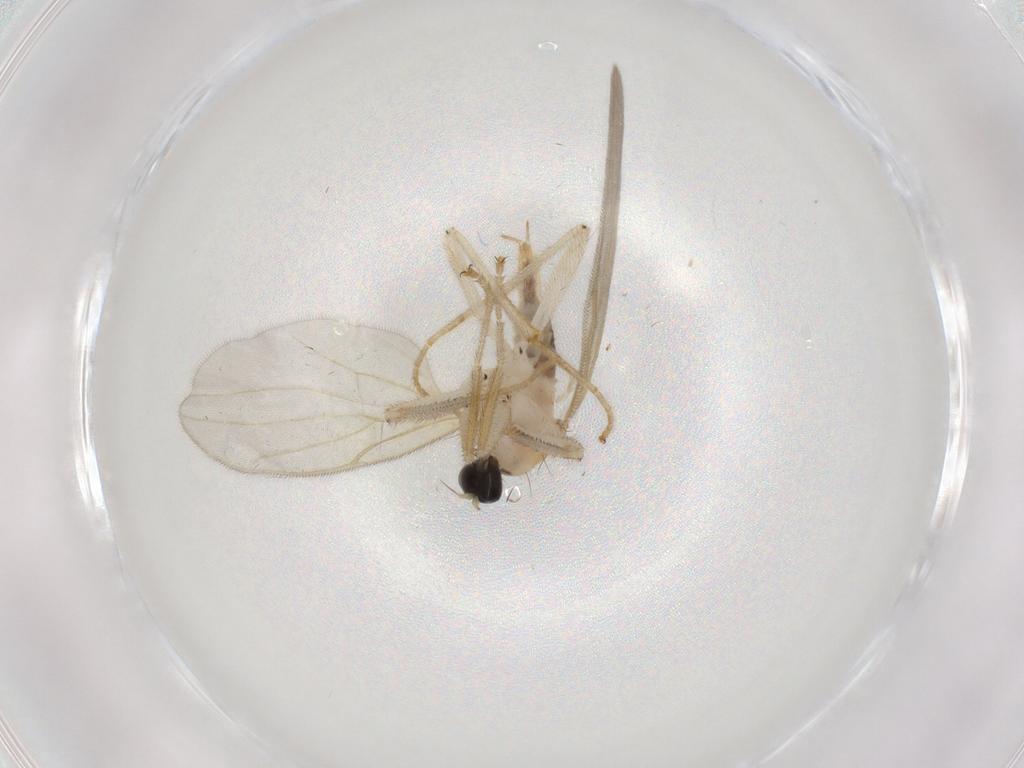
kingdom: Animalia
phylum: Arthropoda
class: Insecta
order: Diptera
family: Hybotidae
